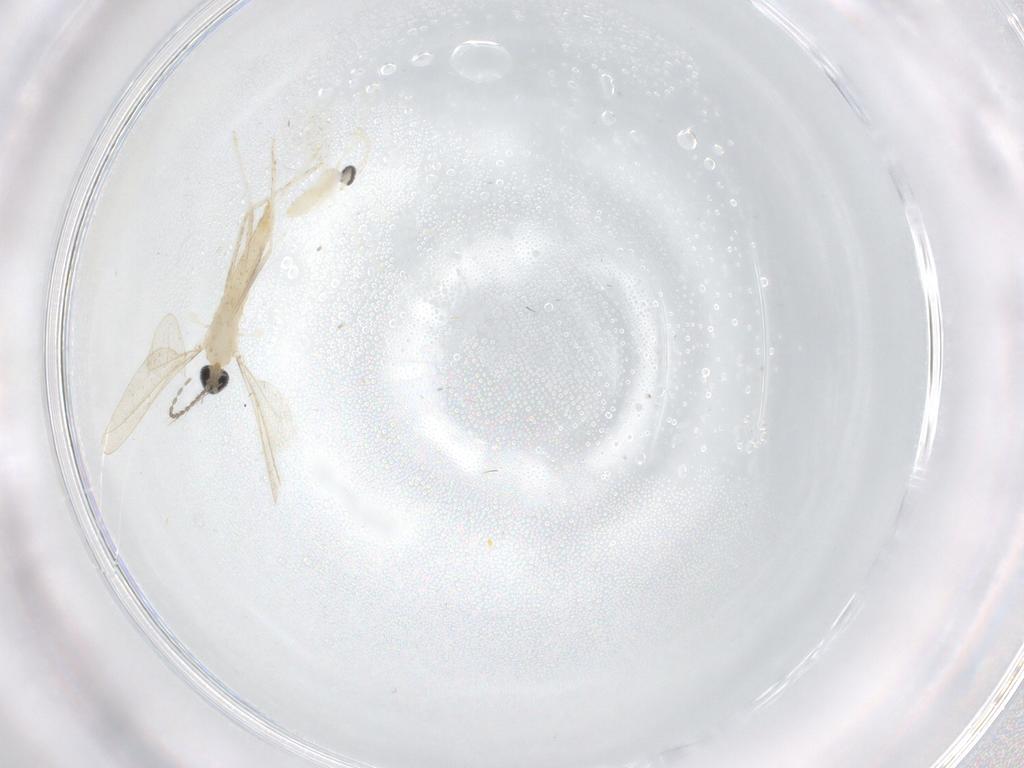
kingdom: Animalia
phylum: Arthropoda
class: Insecta
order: Diptera
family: Cecidomyiidae
